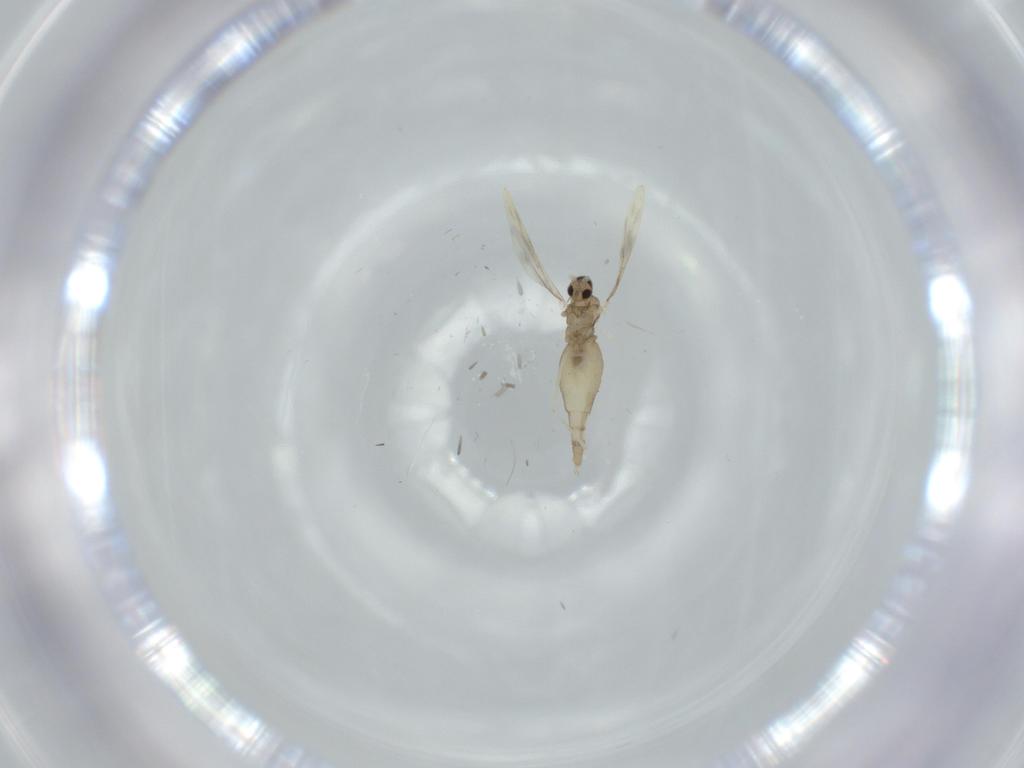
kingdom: Animalia
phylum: Arthropoda
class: Insecta
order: Diptera
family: Cecidomyiidae
